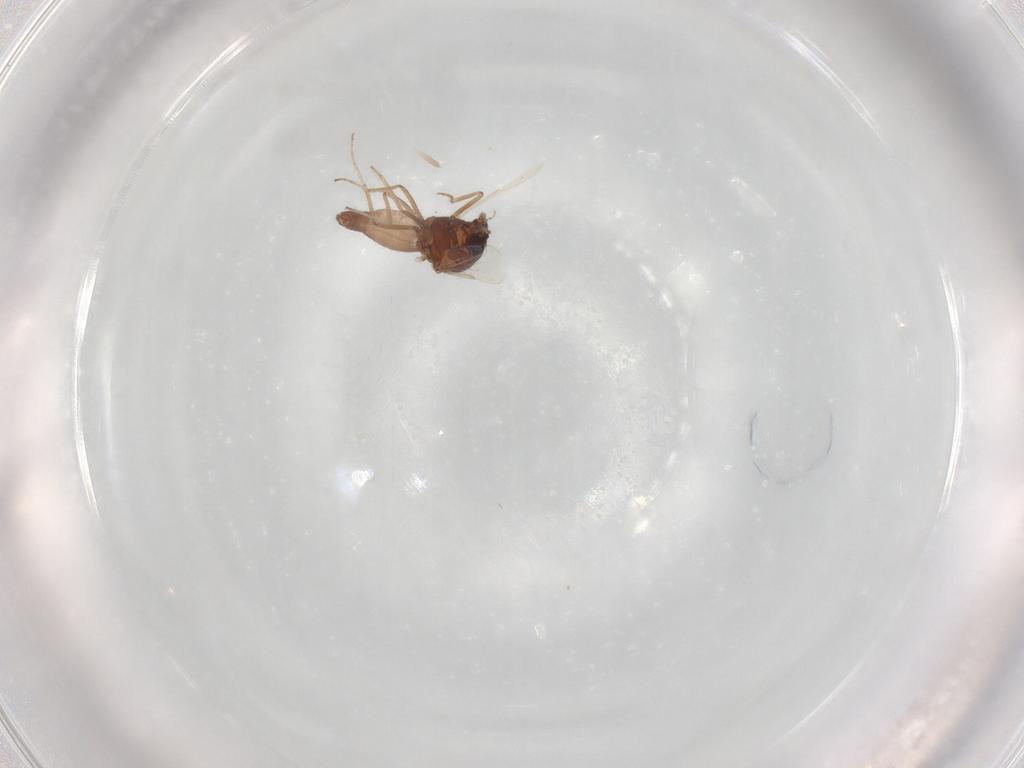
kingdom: Animalia
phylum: Arthropoda
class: Insecta
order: Diptera
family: Ceratopogonidae
